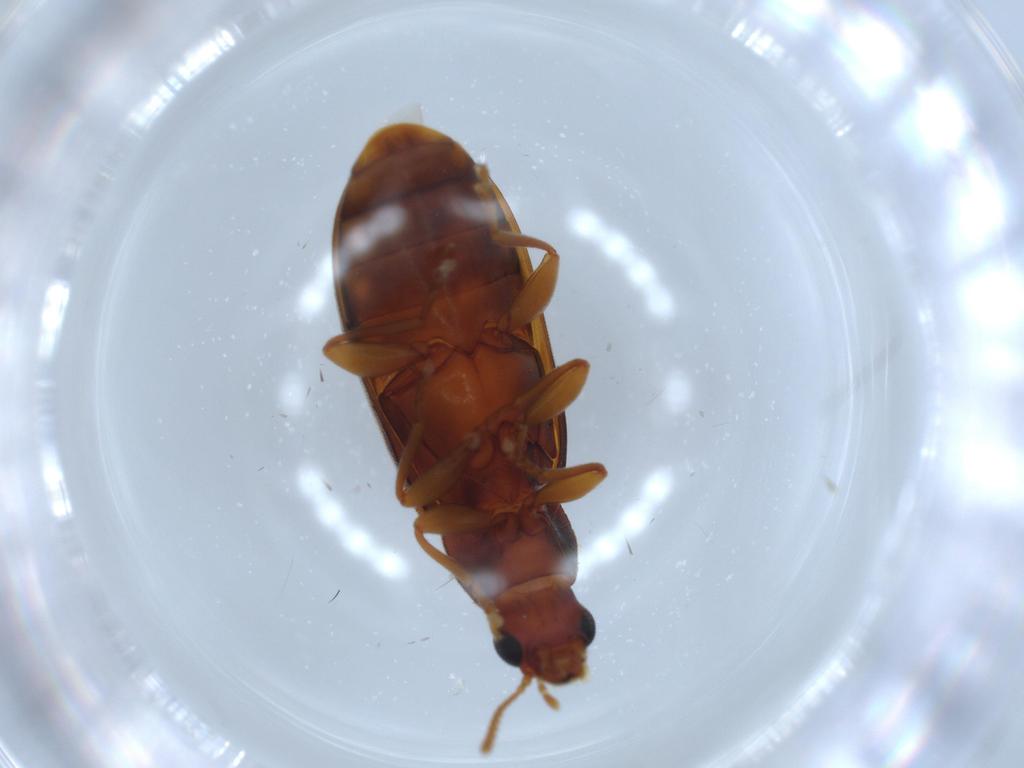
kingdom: Animalia
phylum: Arthropoda
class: Insecta
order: Coleoptera
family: Mycteridae
